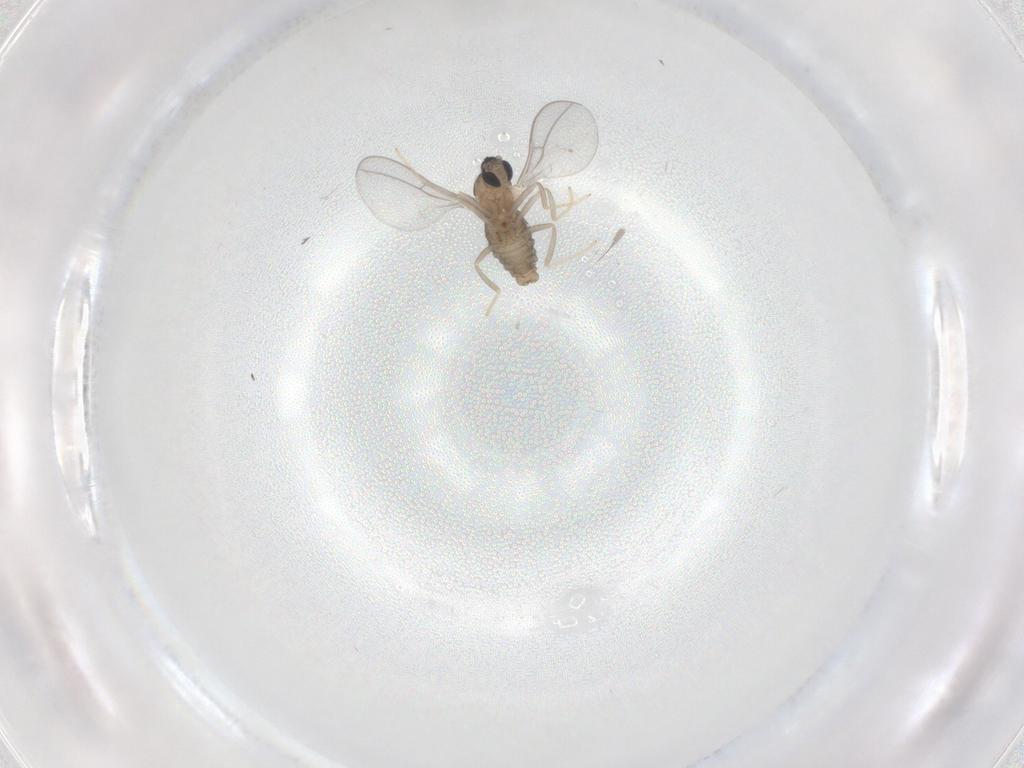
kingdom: Animalia
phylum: Arthropoda
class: Insecta
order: Diptera
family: Cecidomyiidae
